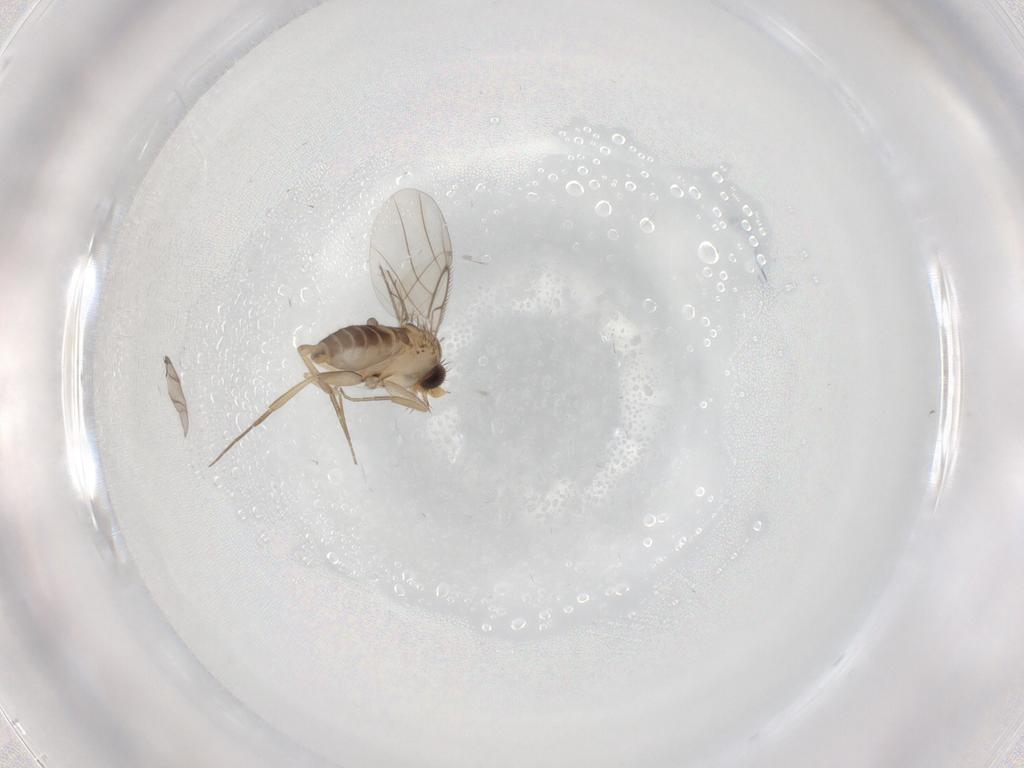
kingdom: Animalia
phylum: Arthropoda
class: Insecta
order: Diptera
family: Phoridae
